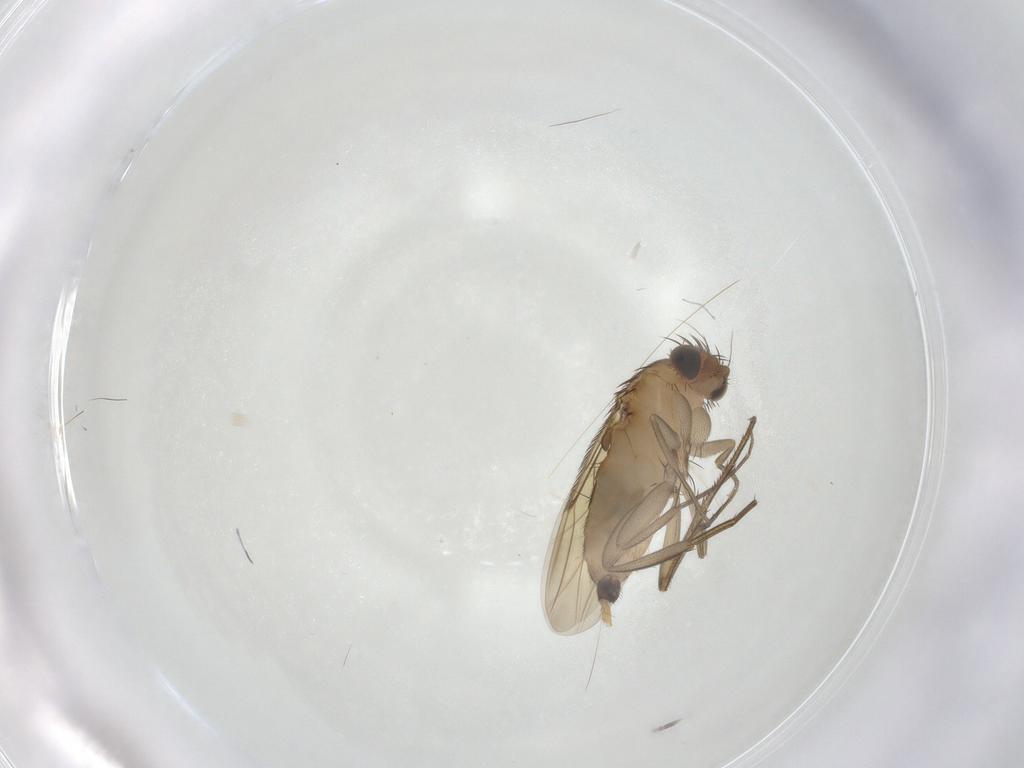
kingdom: Animalia
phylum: Arthropoda
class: Insecta
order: Diptera
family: Phoridae
